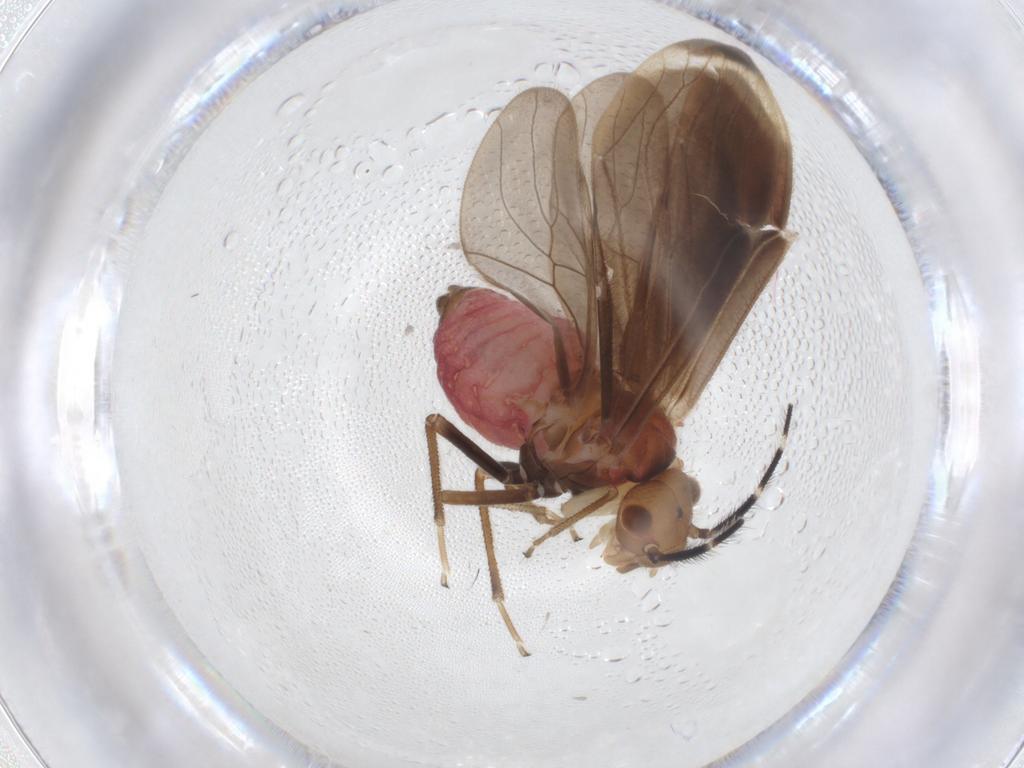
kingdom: Animalia
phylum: Arthropoda
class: Insecta
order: Psocodea
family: Amphipsocidae
